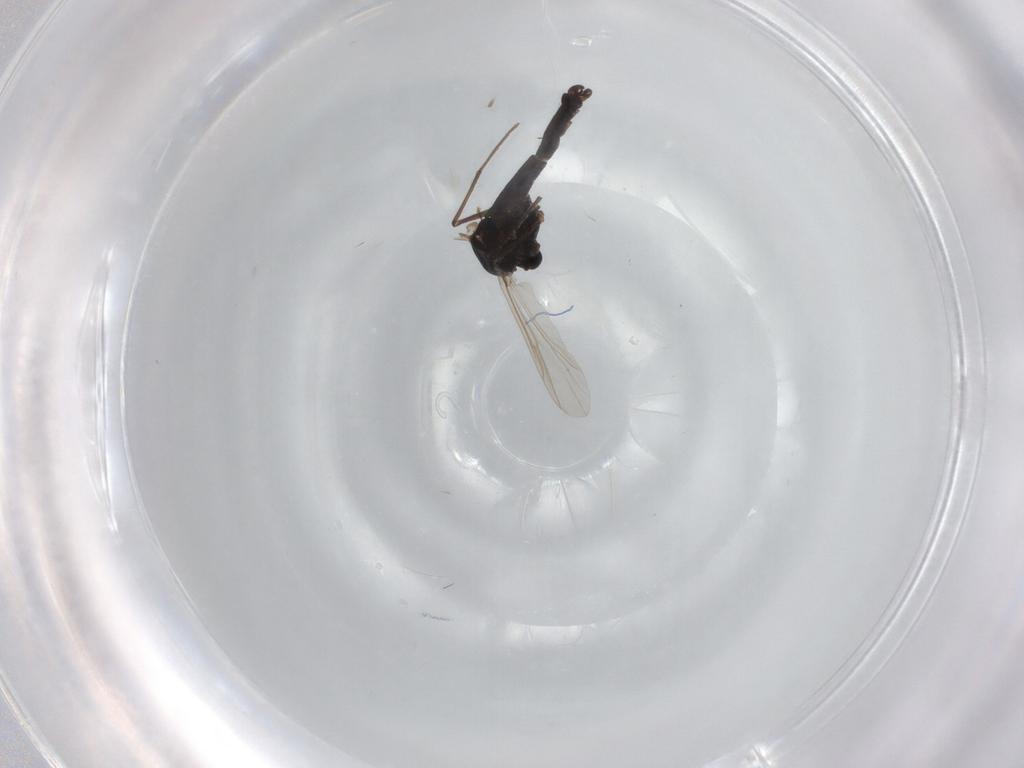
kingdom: Animalia
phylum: Arthropoda
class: Insecta
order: Diptera
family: Chironomidae
